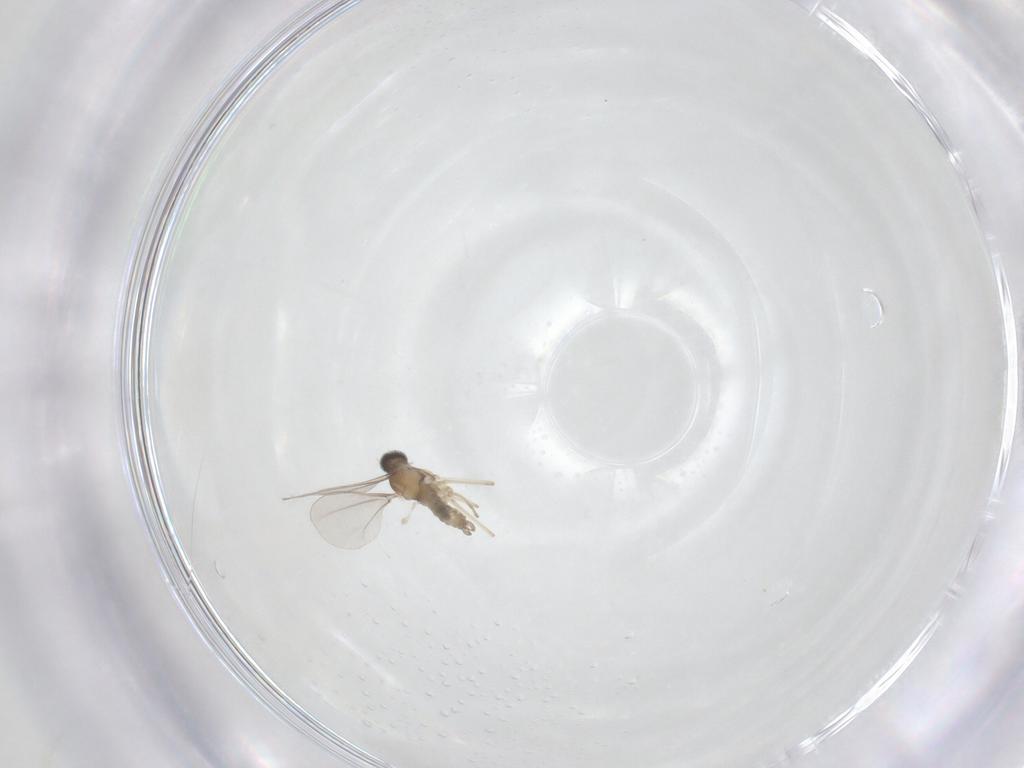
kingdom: Animalia
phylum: Arthropoda
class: Insecta
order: Diptera
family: Cecidomyiidae
